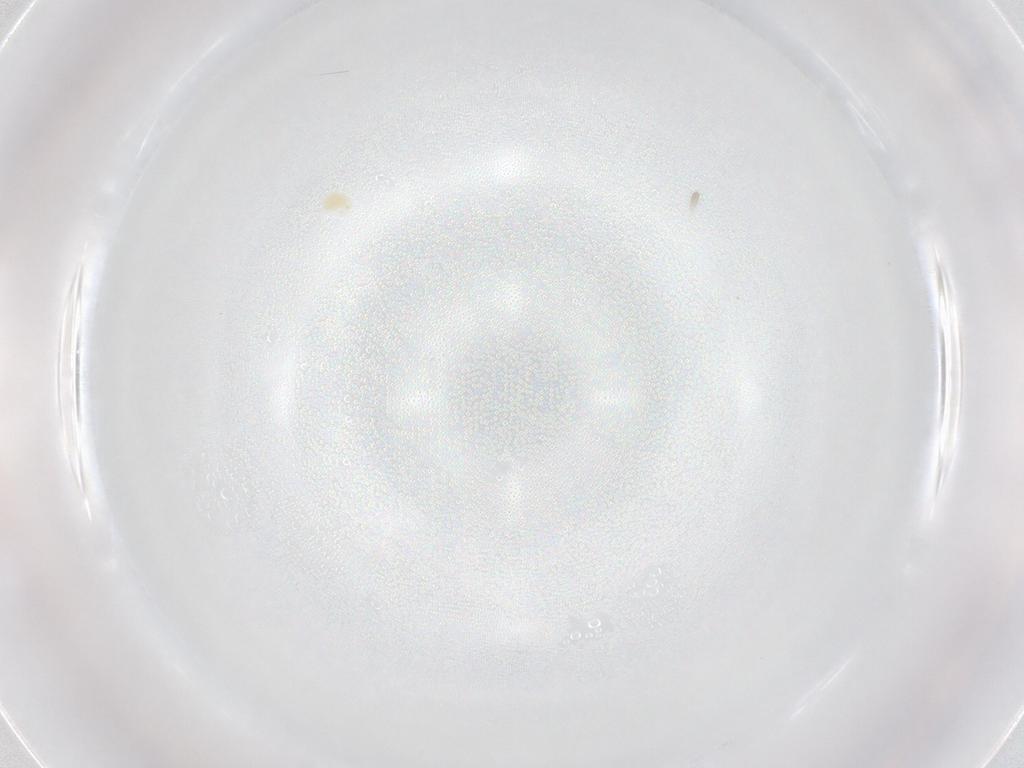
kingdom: Animalia
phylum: Arthropoda
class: Arachnida
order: Trombidiformes
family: Tetranychidae
